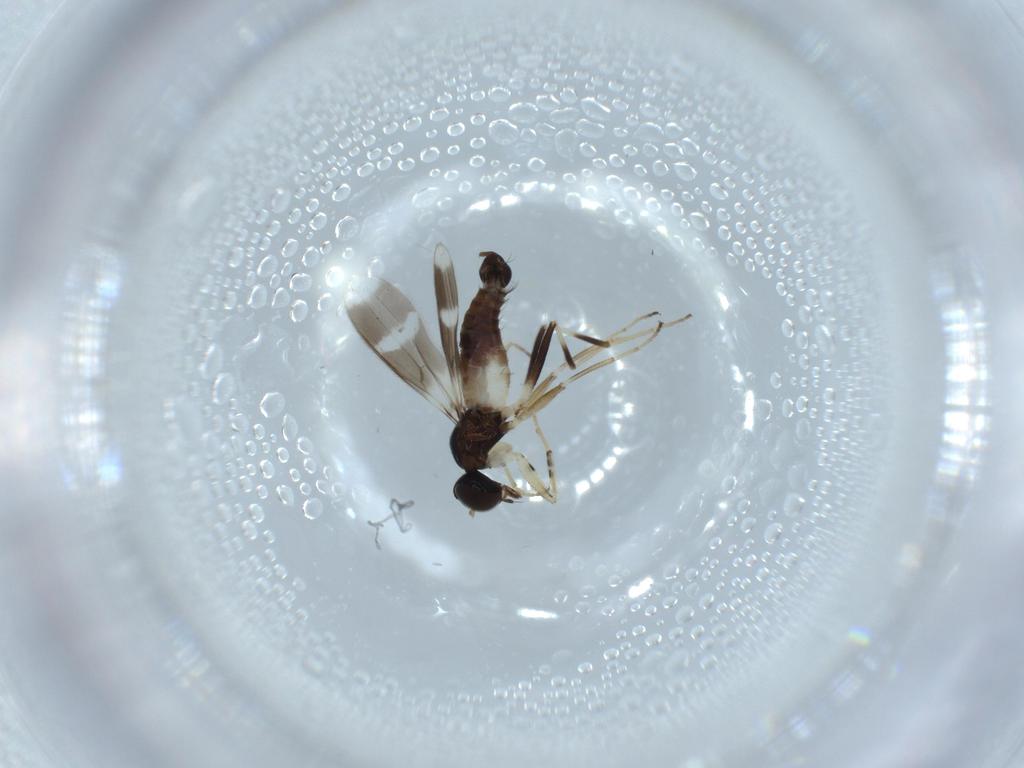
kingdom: Animalia
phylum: Arthropoda
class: Insecta
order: Diptera
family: Hybotidae
